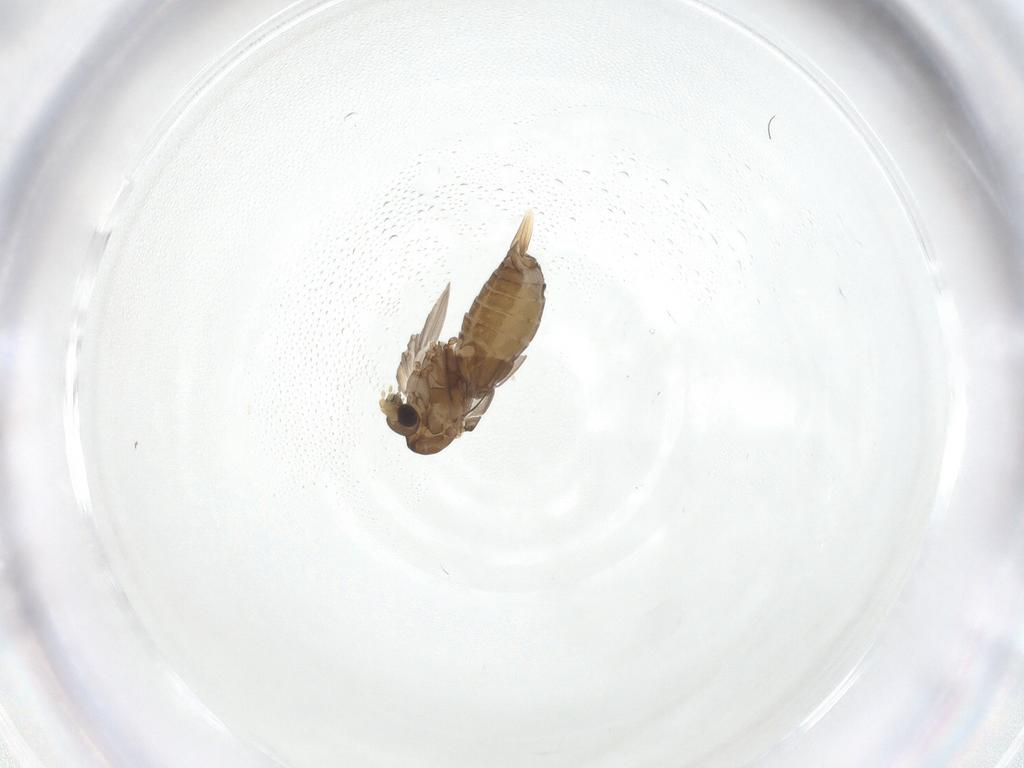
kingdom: Animalia
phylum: Arthropoda
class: Insecta
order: Diptera
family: Psychodidae
